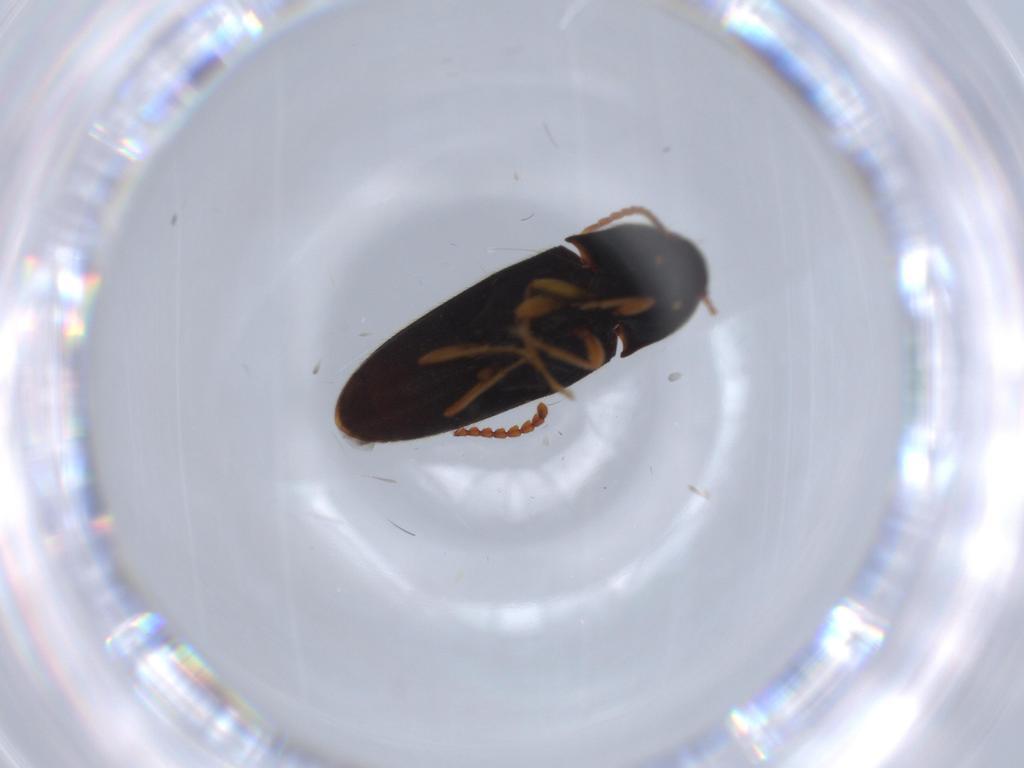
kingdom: Animalia
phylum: Arthropoda
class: Insecta
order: Coleoptera
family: Elateridae
